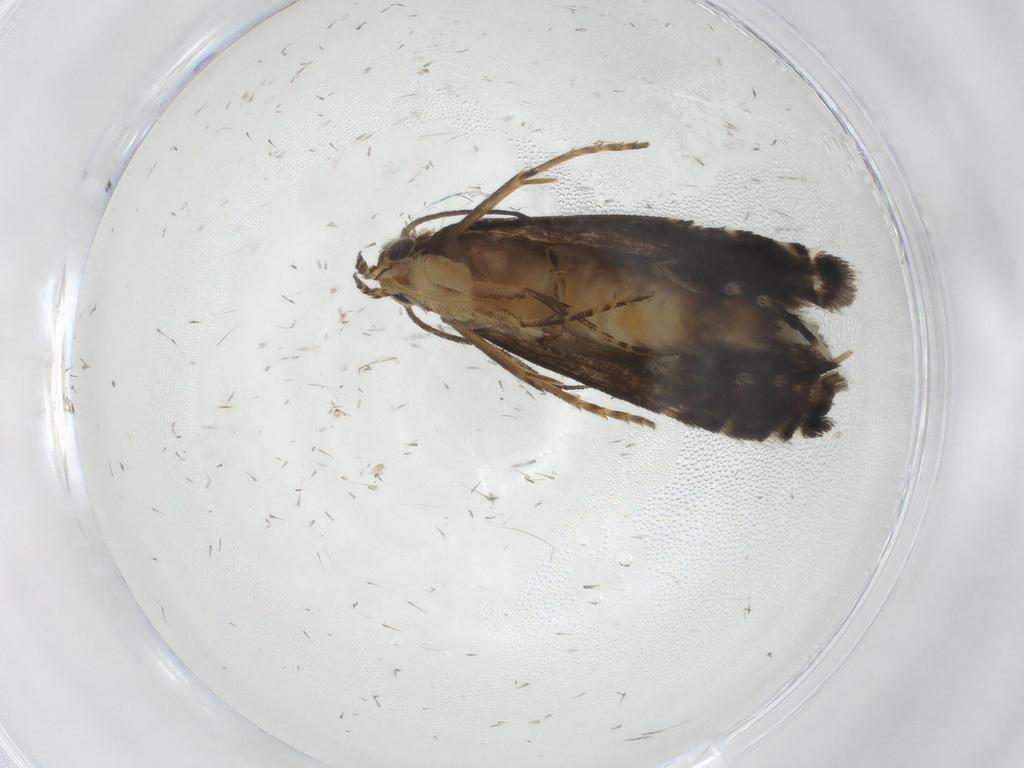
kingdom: Animalia
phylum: Arthropoda
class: Insecta
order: Lepidoptera
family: Glyphipterigidae
